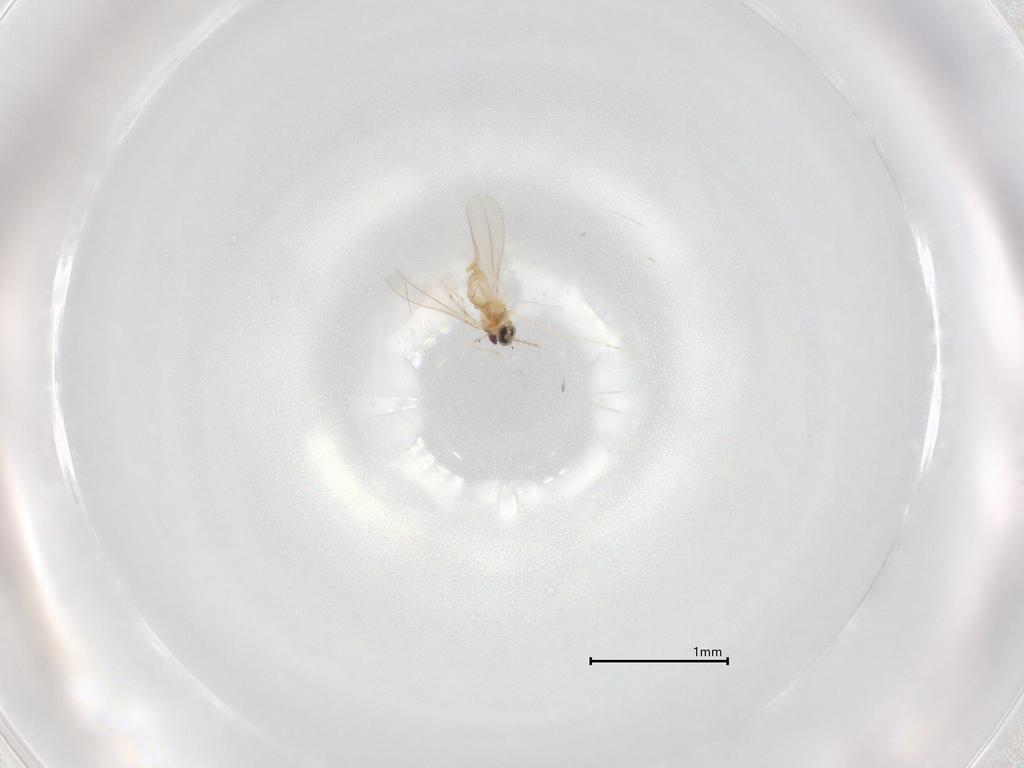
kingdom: Animalia
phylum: Arthropoda
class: Insecta
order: Diptera
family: Cecidomyiidae
